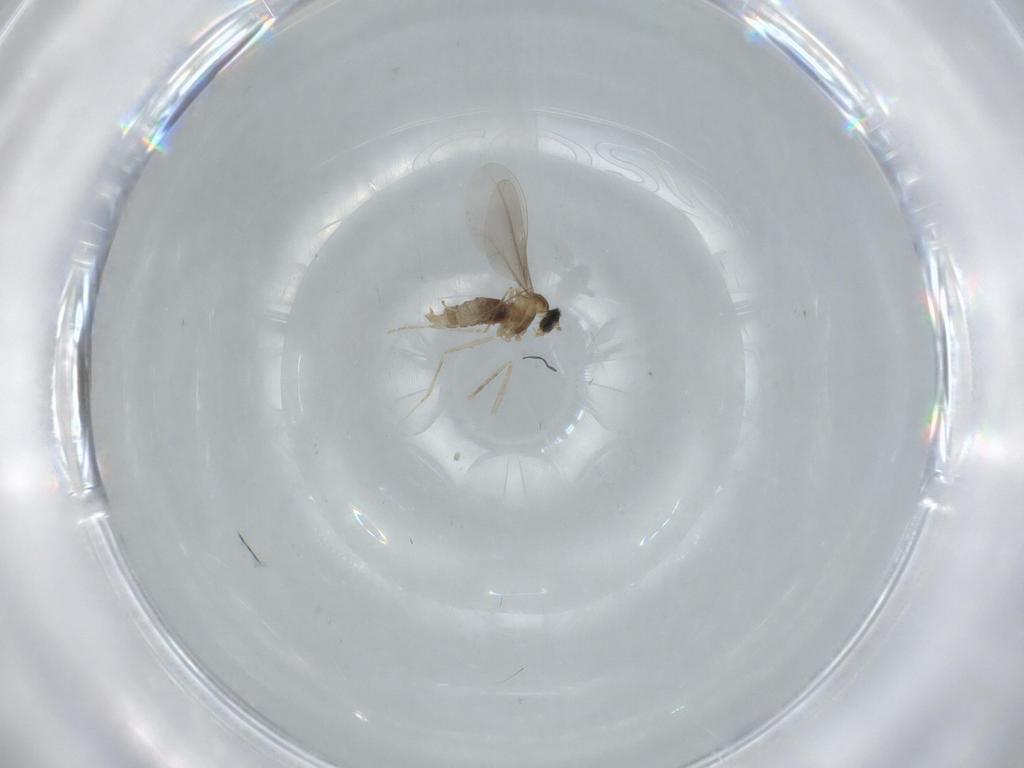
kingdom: Animalia
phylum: Arthropoda
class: Insecta
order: Diptera
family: Cecidomyiidae
